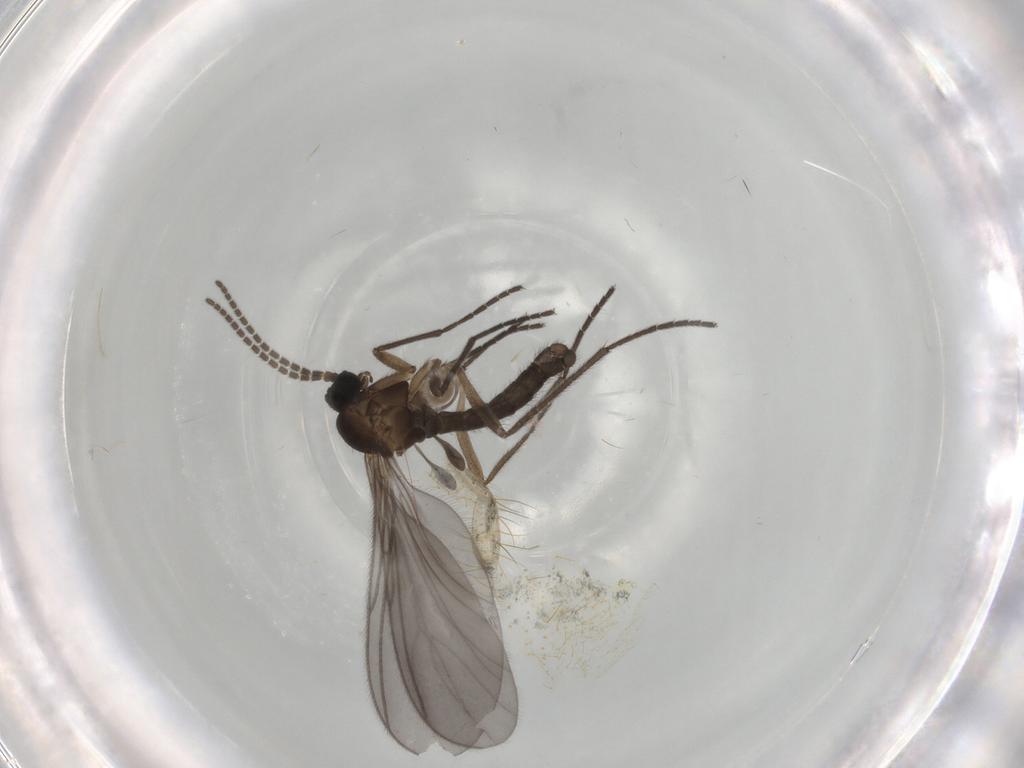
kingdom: Animalia
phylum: Arthropoda
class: Insecta
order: Diptera
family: Sciaridae
